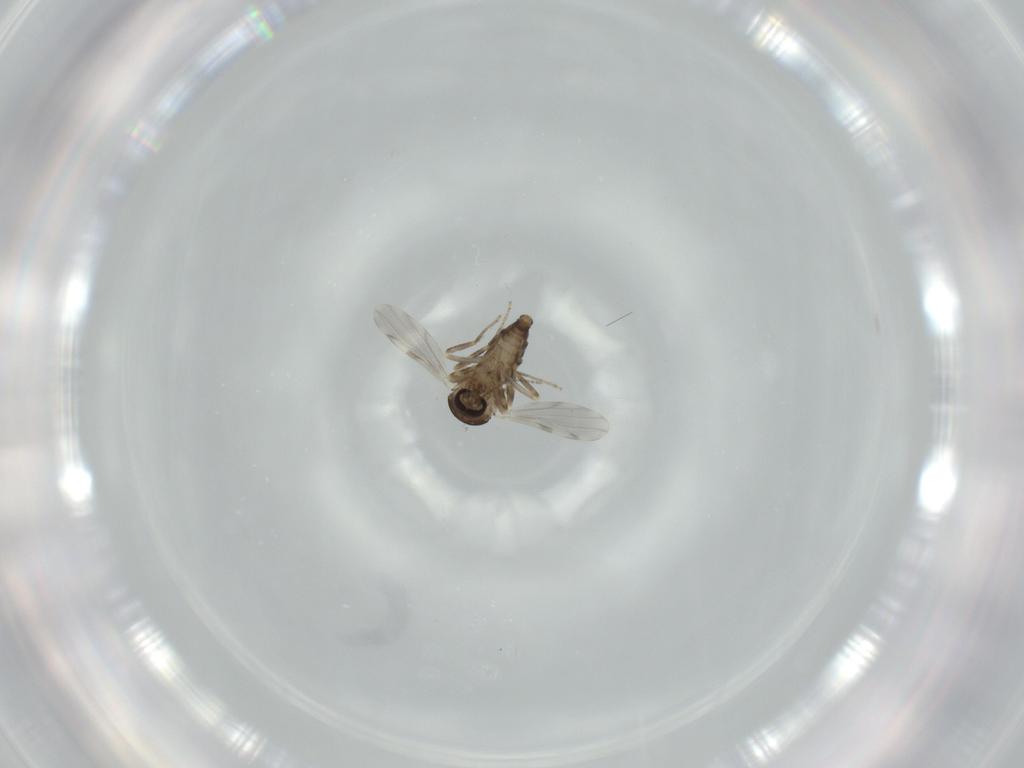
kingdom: Animalia
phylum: Arthropoda
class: Insecta
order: Diptera
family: Ceratopogonidae
